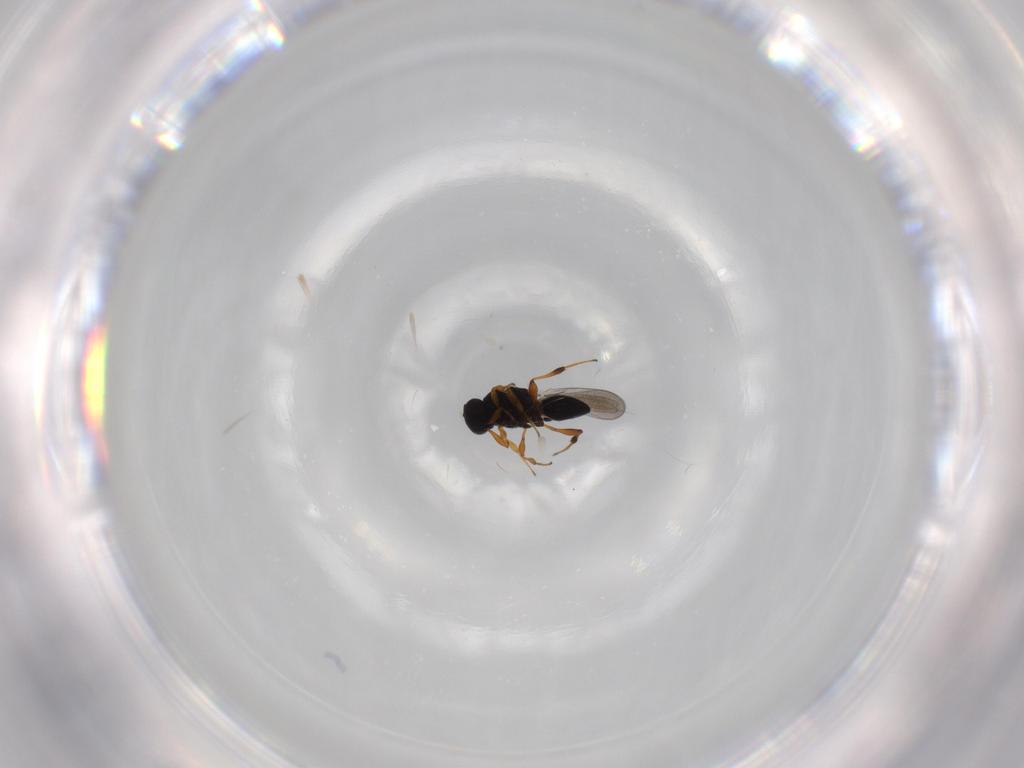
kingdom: Animalia
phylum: Arthropoda
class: Insecta
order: Hymenoptera
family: Platygastridae
